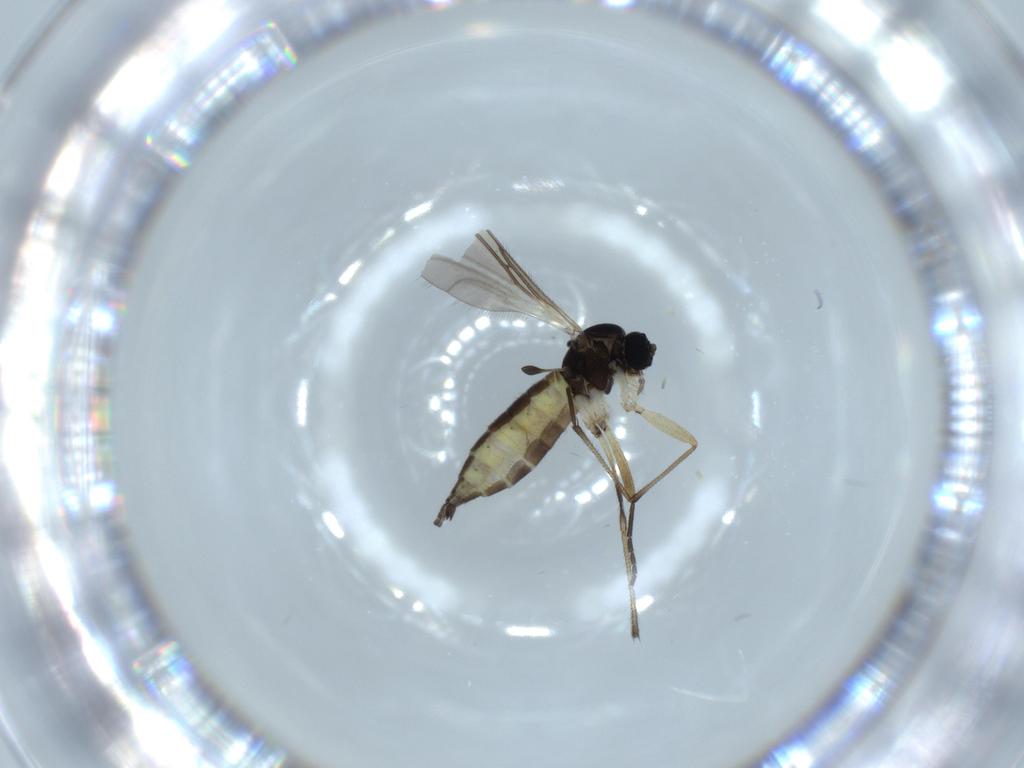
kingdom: Animalia
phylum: Arthropoda
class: Insecta
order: Diptera
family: Sciaridae
